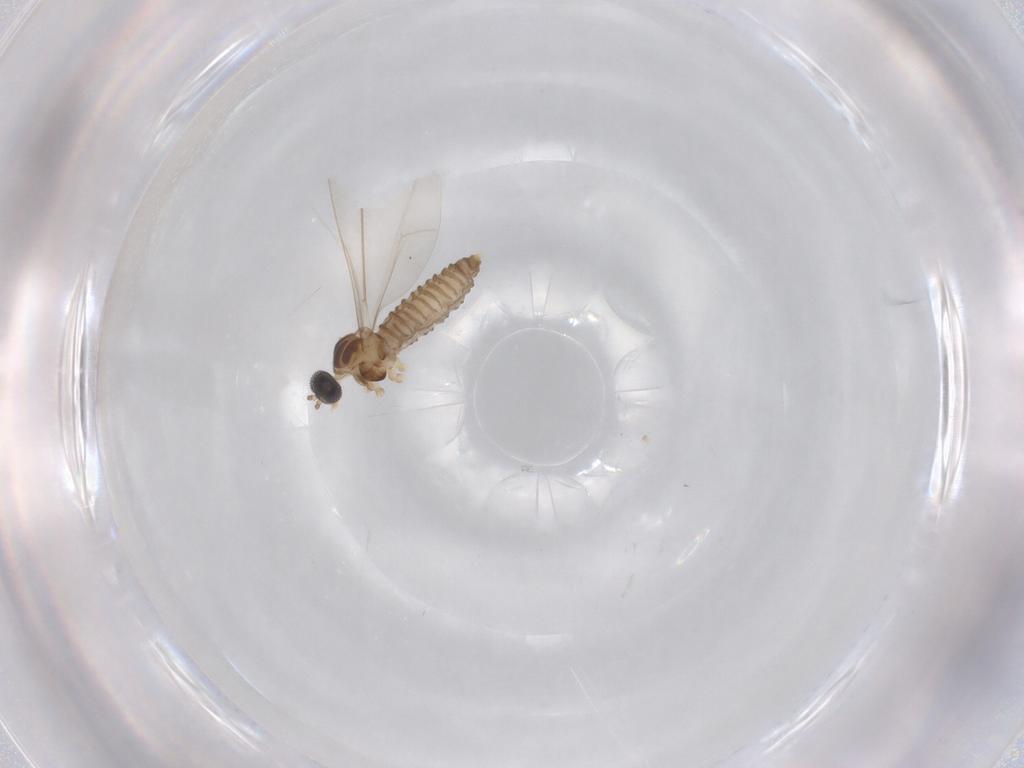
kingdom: Animalia
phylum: Arthropoda
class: Insecta
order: Diptera
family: Cecidomyiidae
